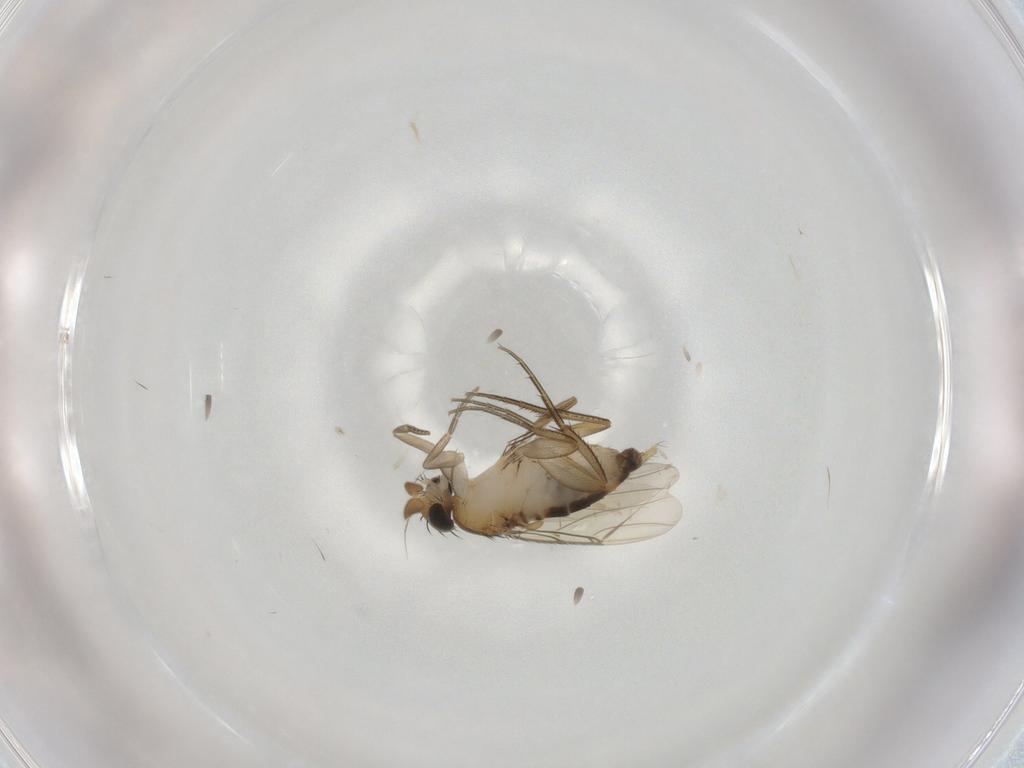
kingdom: Animalia
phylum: Arthropoda
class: Insecta
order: Diptera
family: Phoridae
